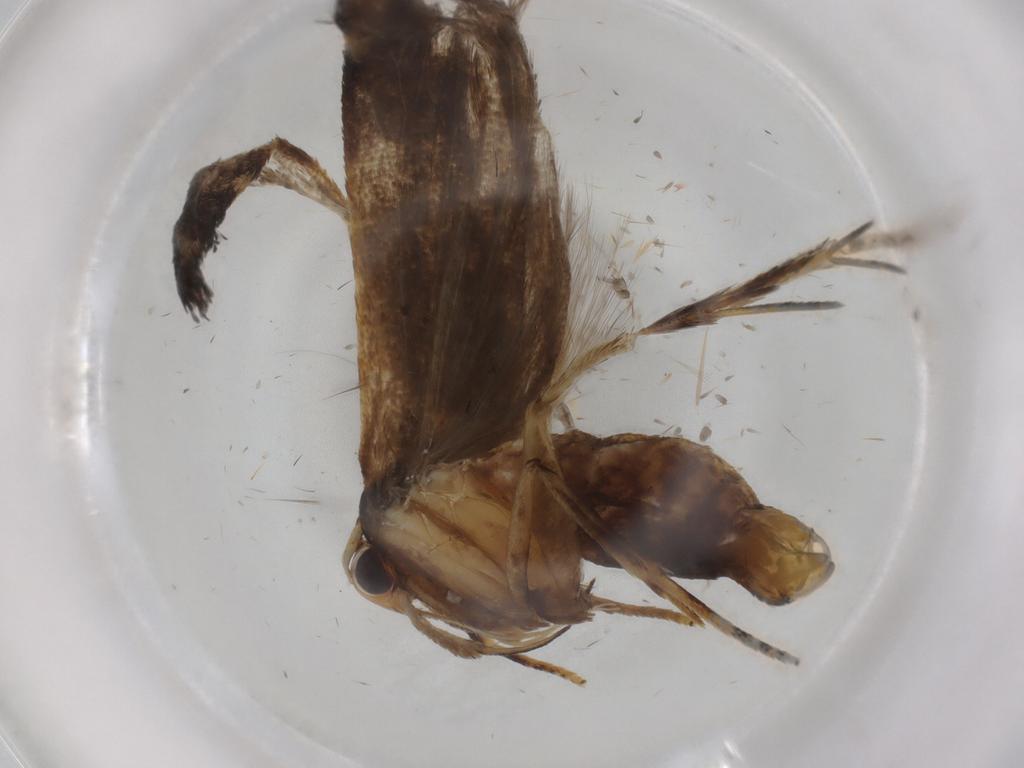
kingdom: Animalia
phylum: Arthropoda
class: Insecta
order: Lepidoptera
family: Lecithoceridae
